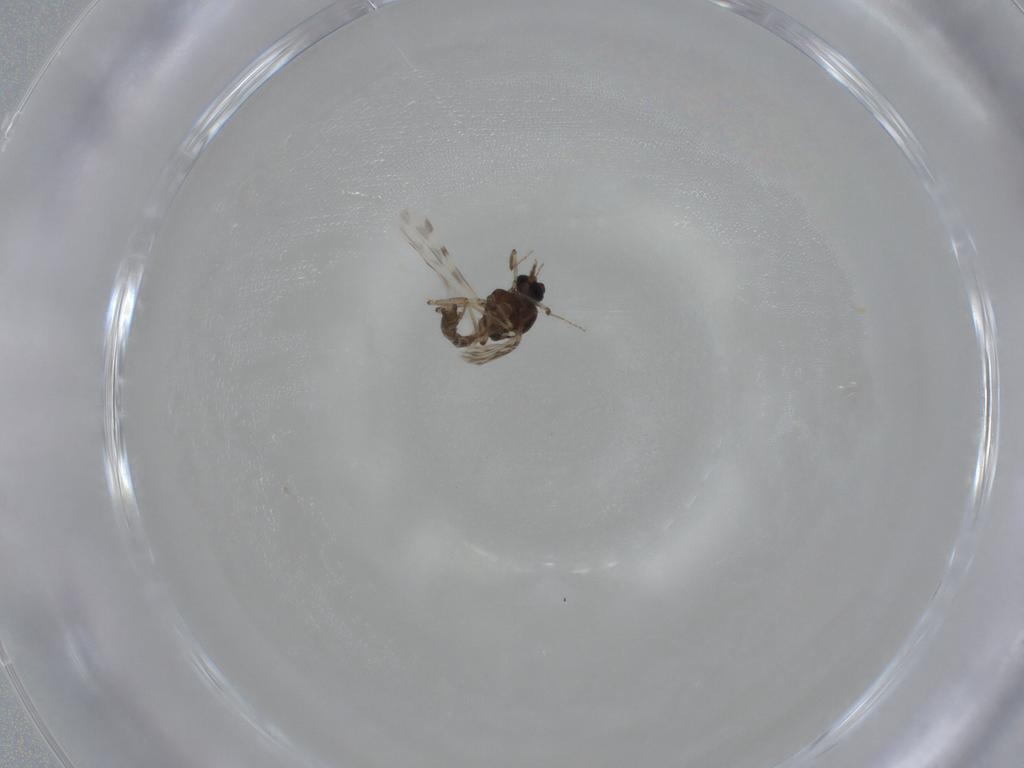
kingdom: Animalia
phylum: Arthropoda
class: Insecta
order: Diptera
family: Ceratopogonidae
